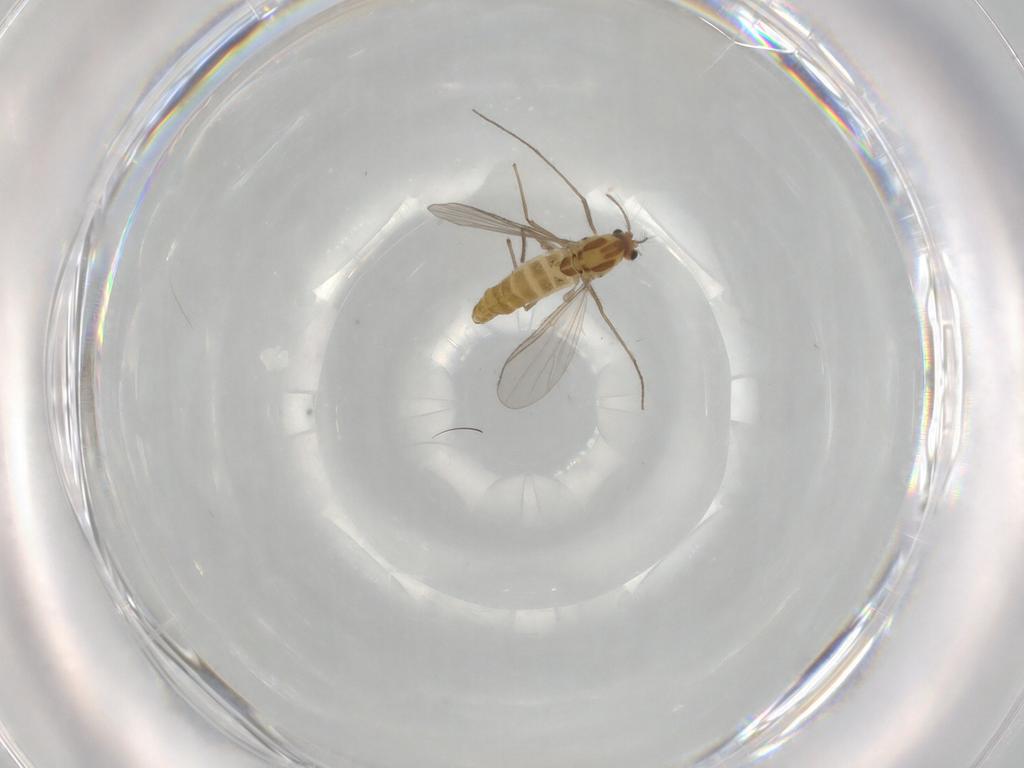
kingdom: Animalia
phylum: Arthropoda
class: Insecta
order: Diptera
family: Chironomidae
